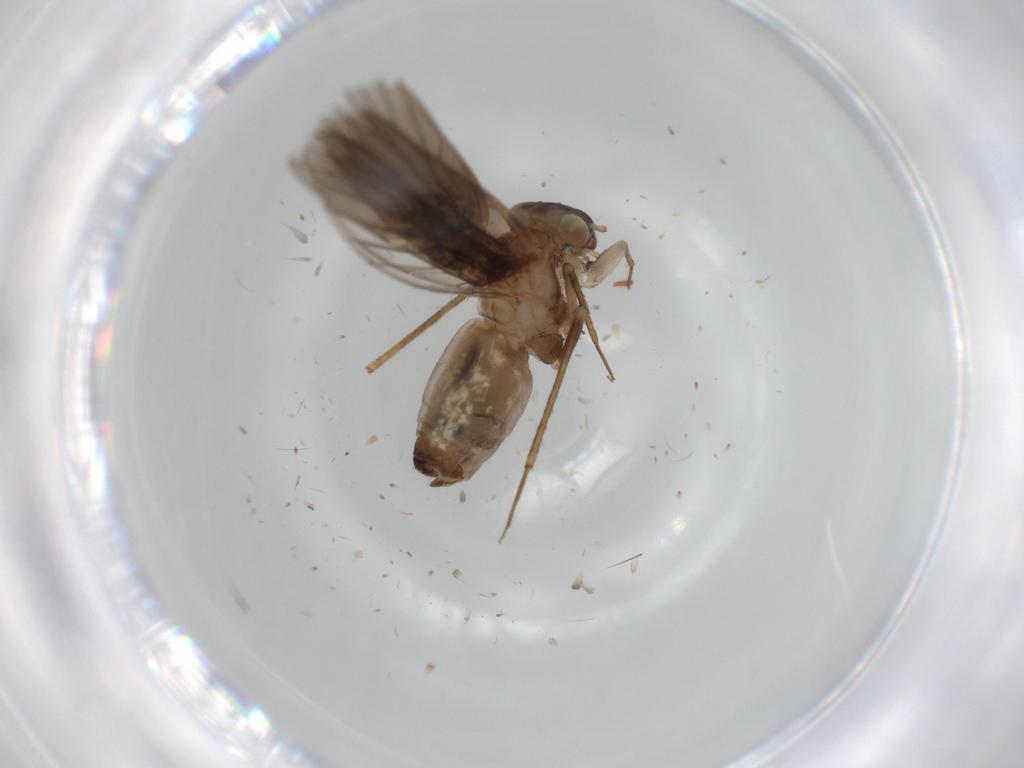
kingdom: Animalia
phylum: Arthropoda
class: Insecta
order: Psocodea
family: Lepidopsocidae
